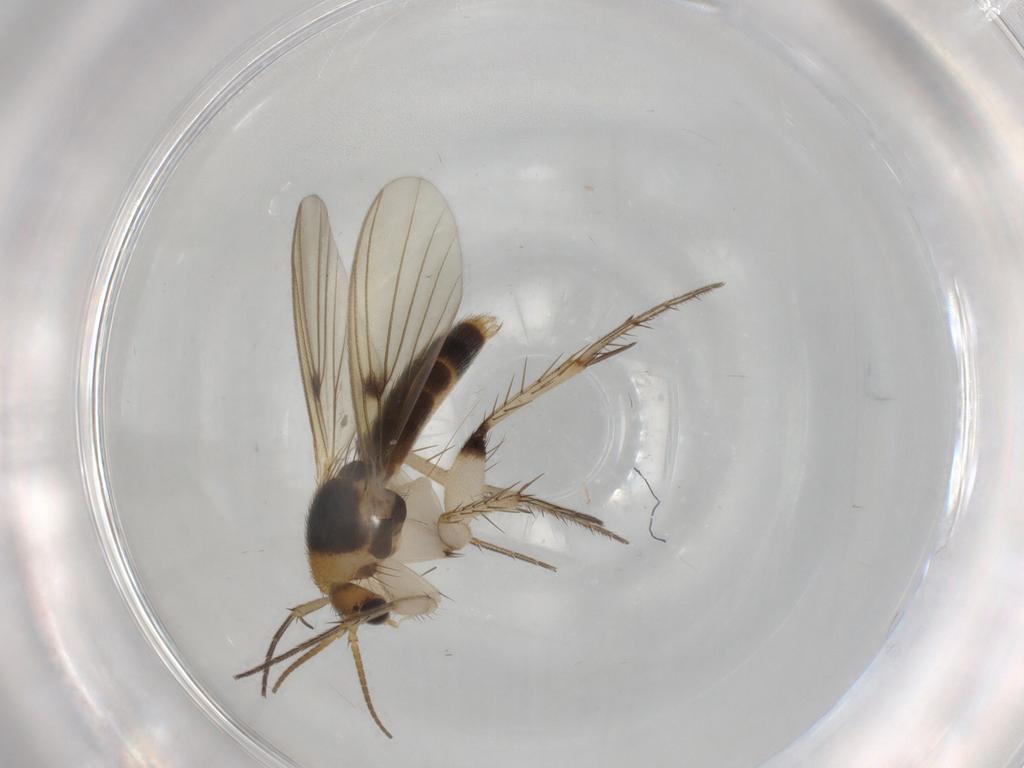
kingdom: Animalia
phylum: Arthropoda
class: Insecta
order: Diptera
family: Mycetophilidae
